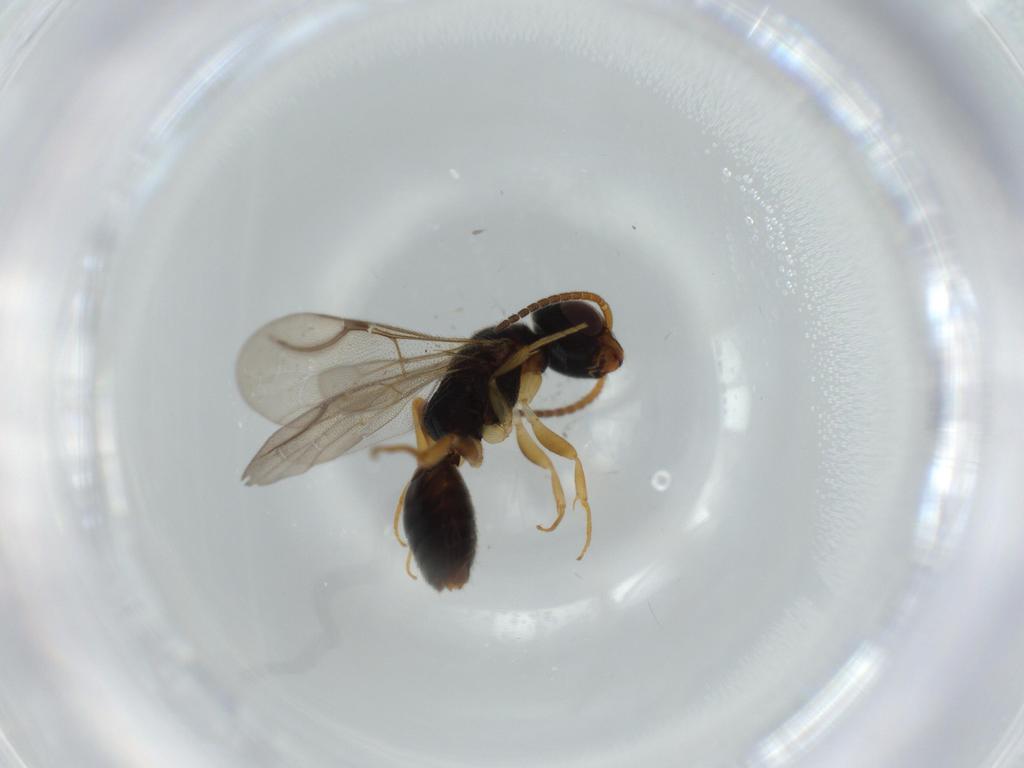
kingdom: Animalia
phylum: Arthropoda
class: Insecta
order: Hymenoptera
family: Bethylidae
